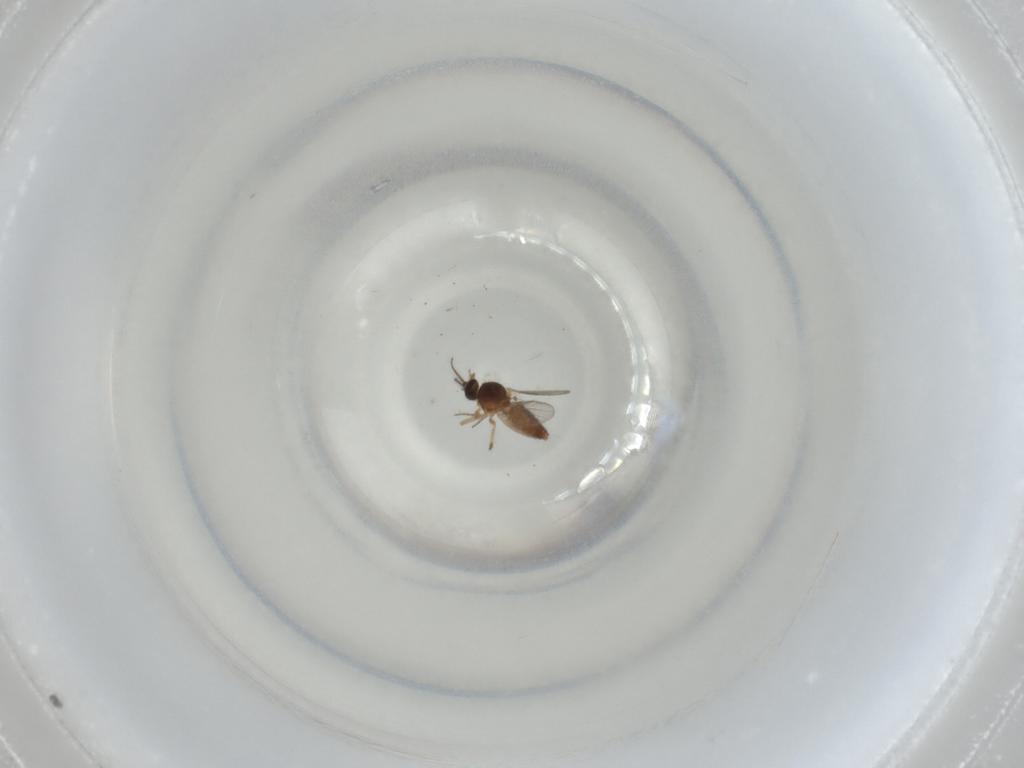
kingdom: Animalia
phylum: Arthropoda
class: Insecta
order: Diptera
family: Ceratopogonidae
